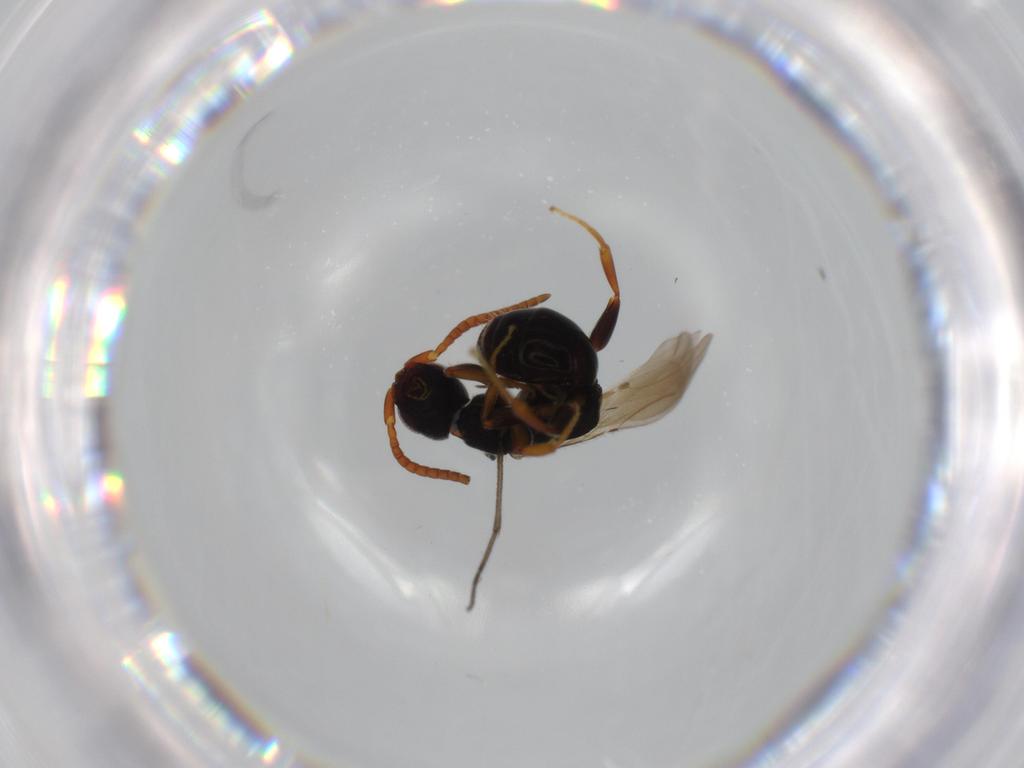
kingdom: Animalia
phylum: Arthropoda
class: Insecta
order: Hymenoptera
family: Bethylidae
